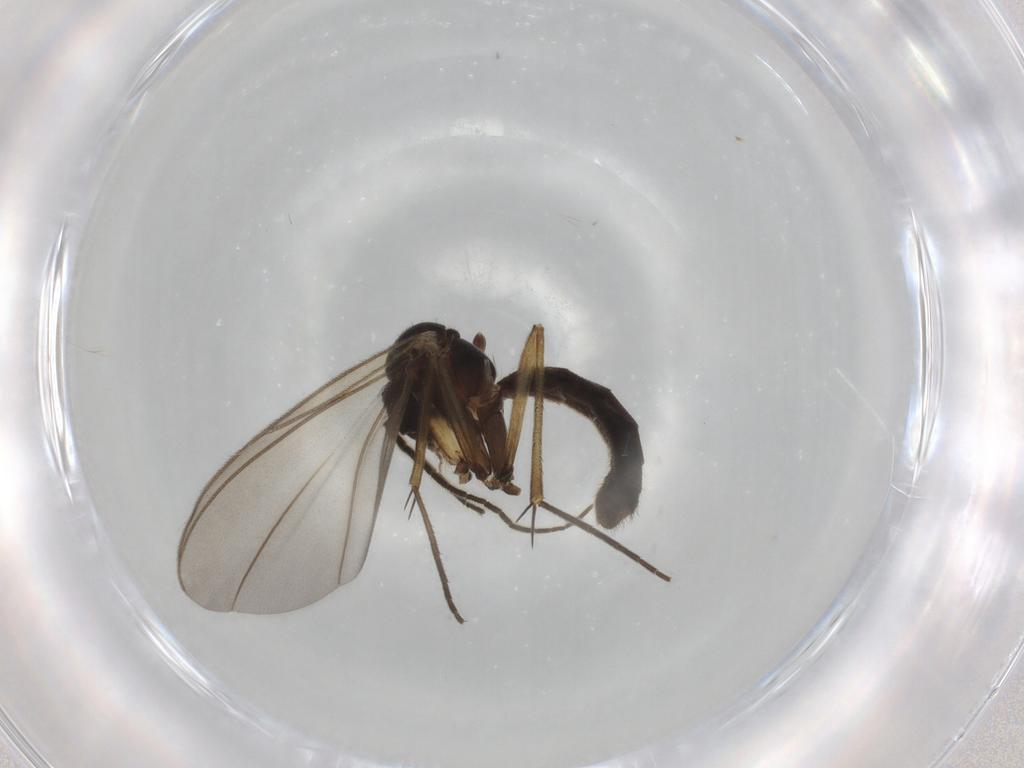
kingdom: Animalia
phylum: Arthropoda
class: Insecta
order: Diptera
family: Mycetophilidae
